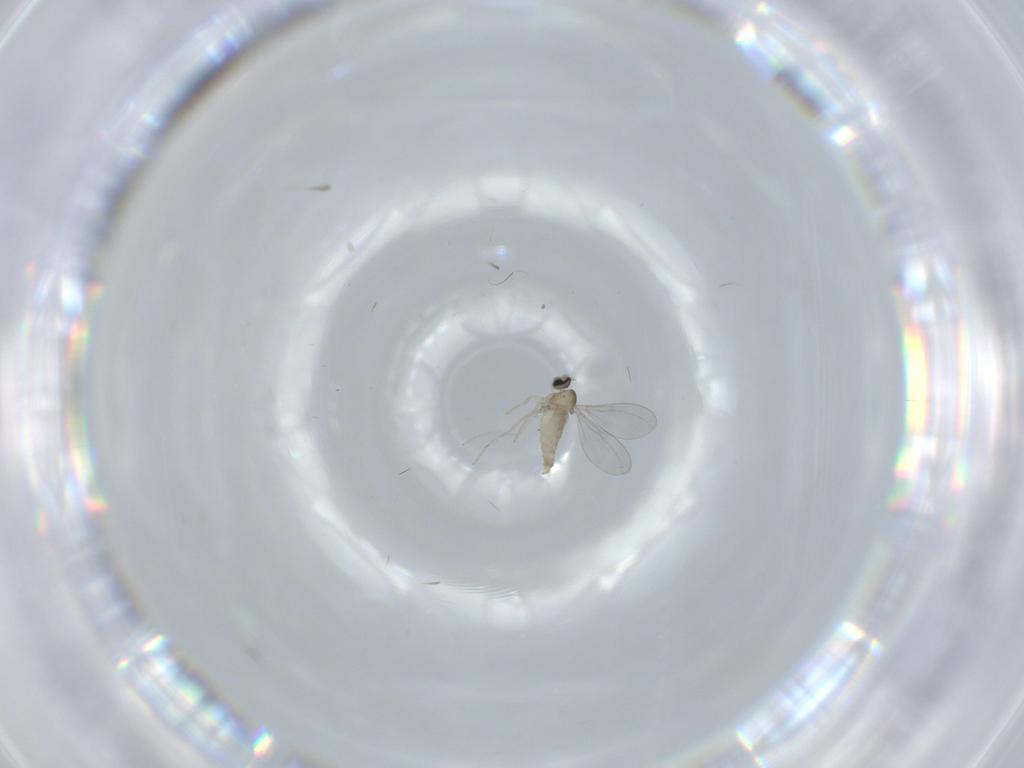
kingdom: Animalia
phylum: Arthropoda
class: Insecta
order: Diptera
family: Cecidomyiidae
